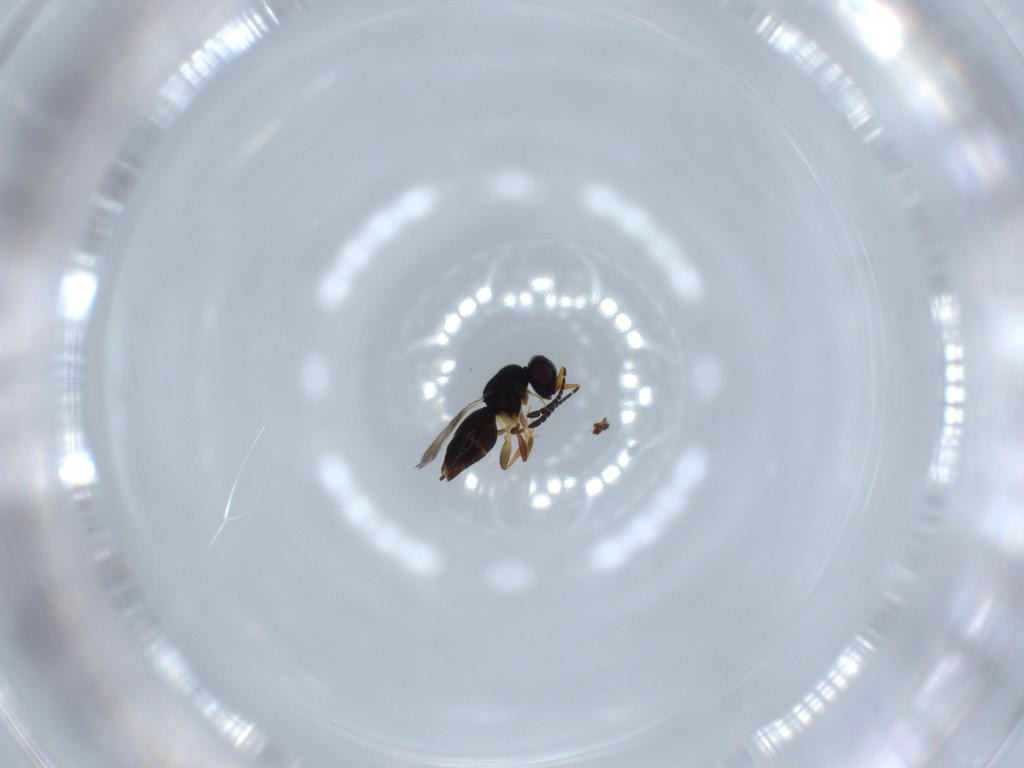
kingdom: Animalia
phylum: Arthropoda
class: Insecta
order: Hymenoptera
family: Ceraphronidae
